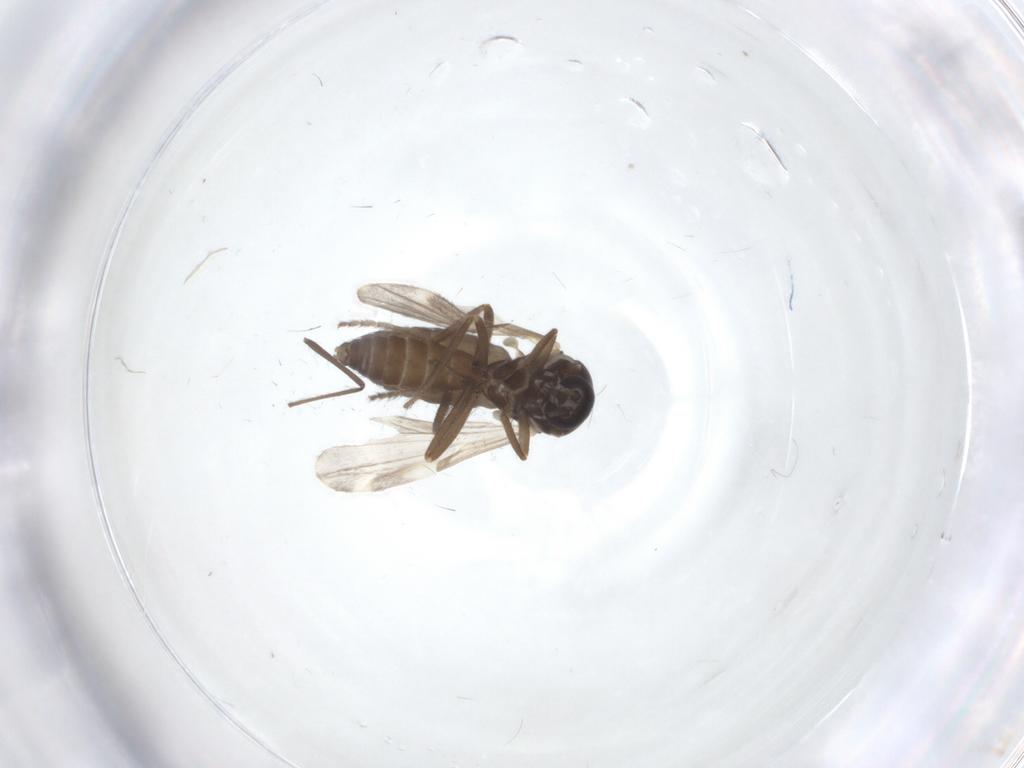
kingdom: Animalia
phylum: Arthropoda
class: Insecta
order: Diptera
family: Ceratopogonidae
